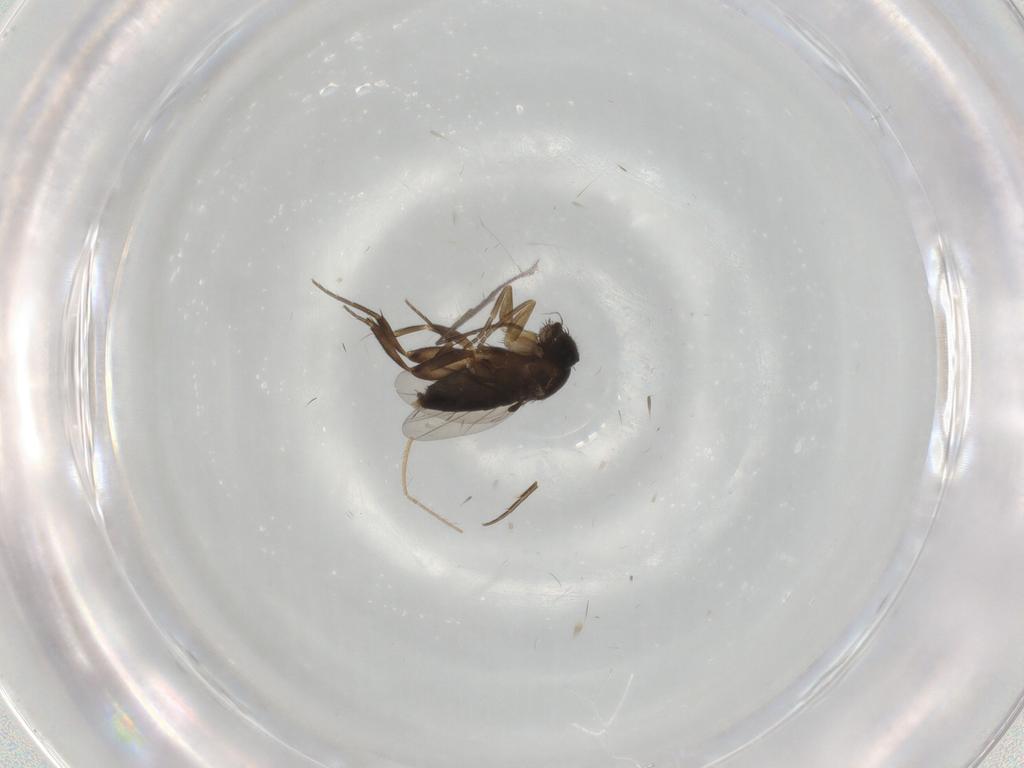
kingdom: Animalia
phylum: Arthropoda
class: Insecta
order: Diptera
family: Phoridae
